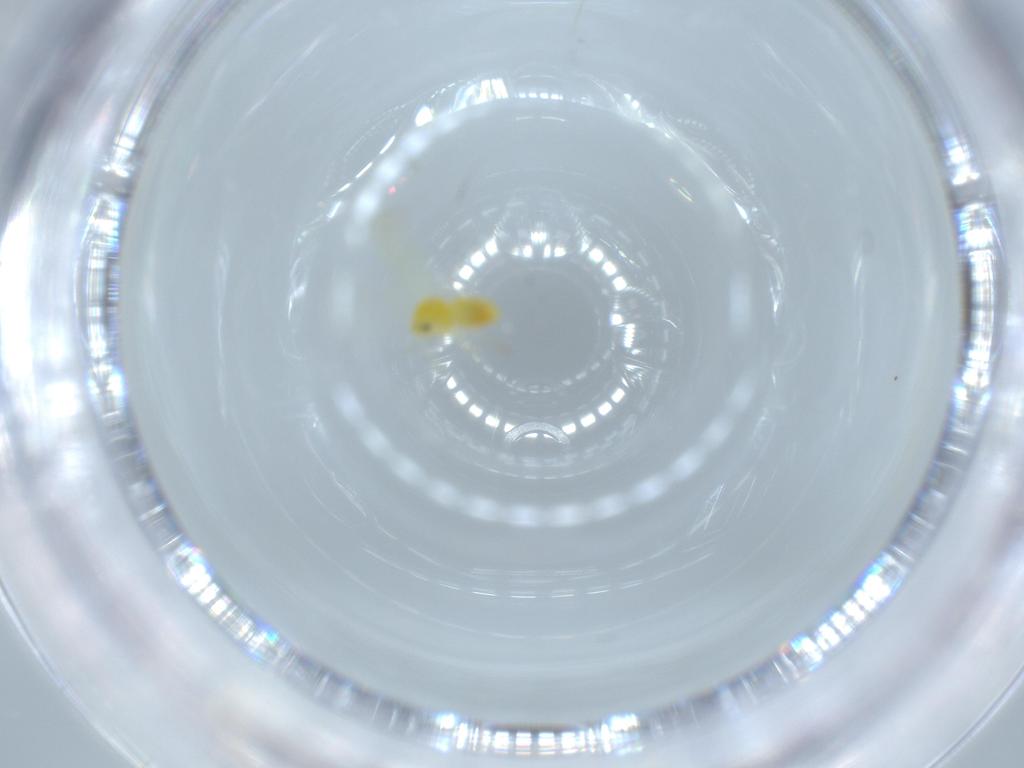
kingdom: Animalia
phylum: Arthropoda
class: Insecta
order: Hemiptera
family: Aleyrodidae
